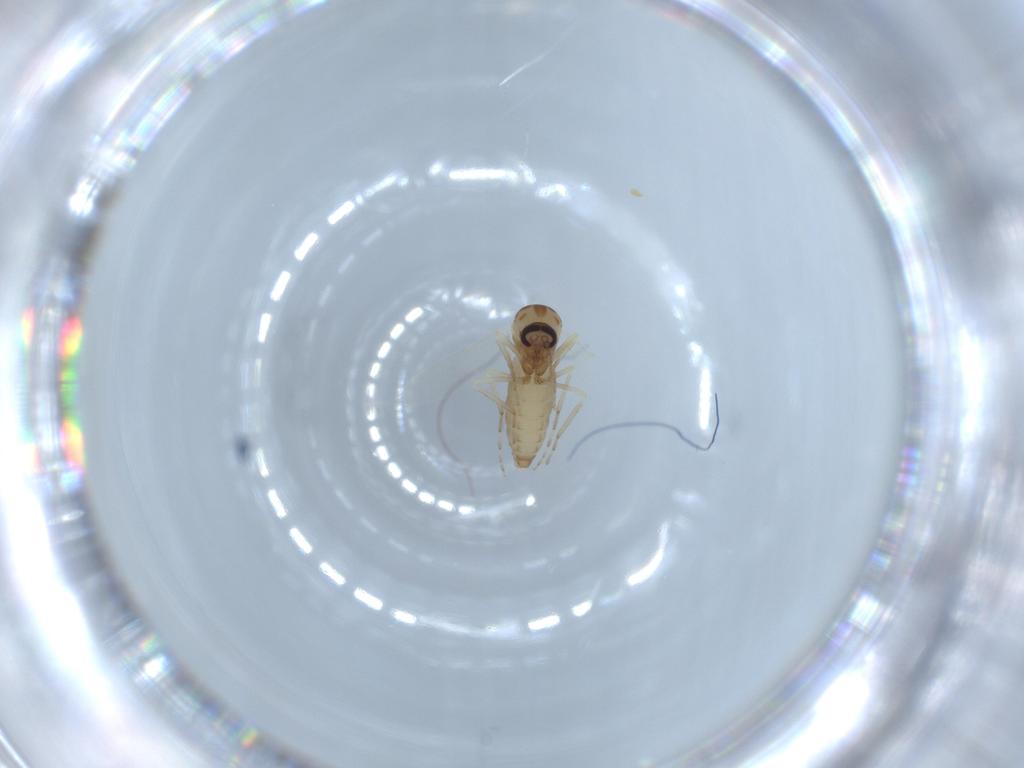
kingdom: Animalia
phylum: Arthropoda
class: Insecta
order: Diptera
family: Ceratopogonidae
